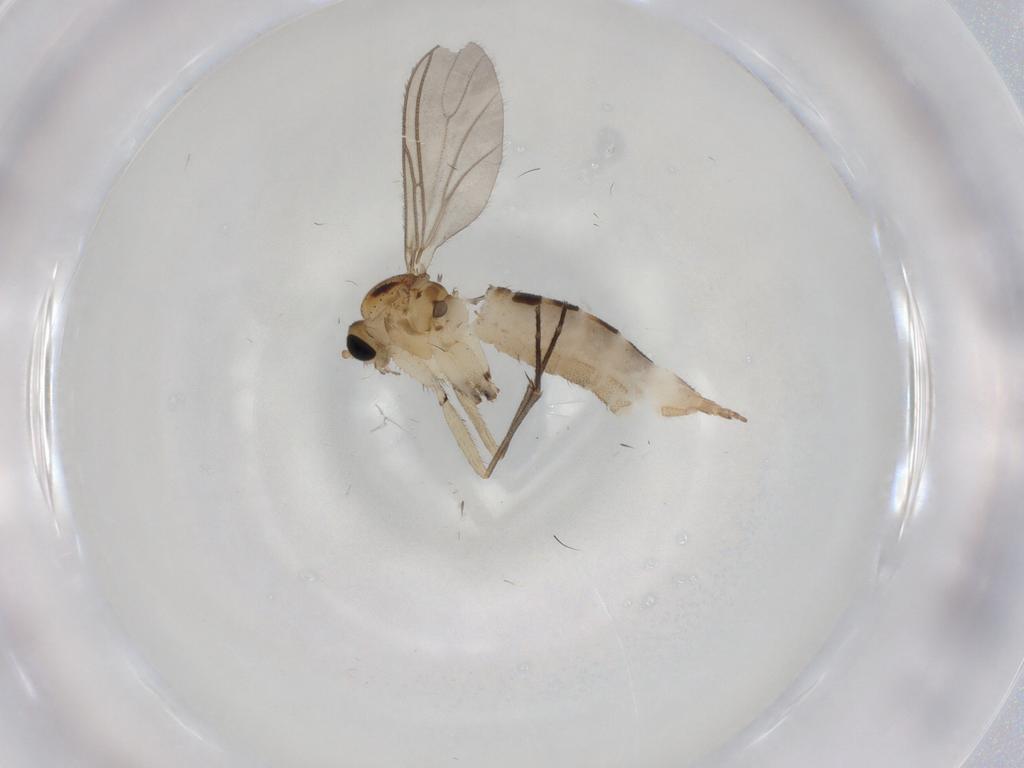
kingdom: Animalia
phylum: Arthropoda
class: Insecta
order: Diptera
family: Sciaridae
